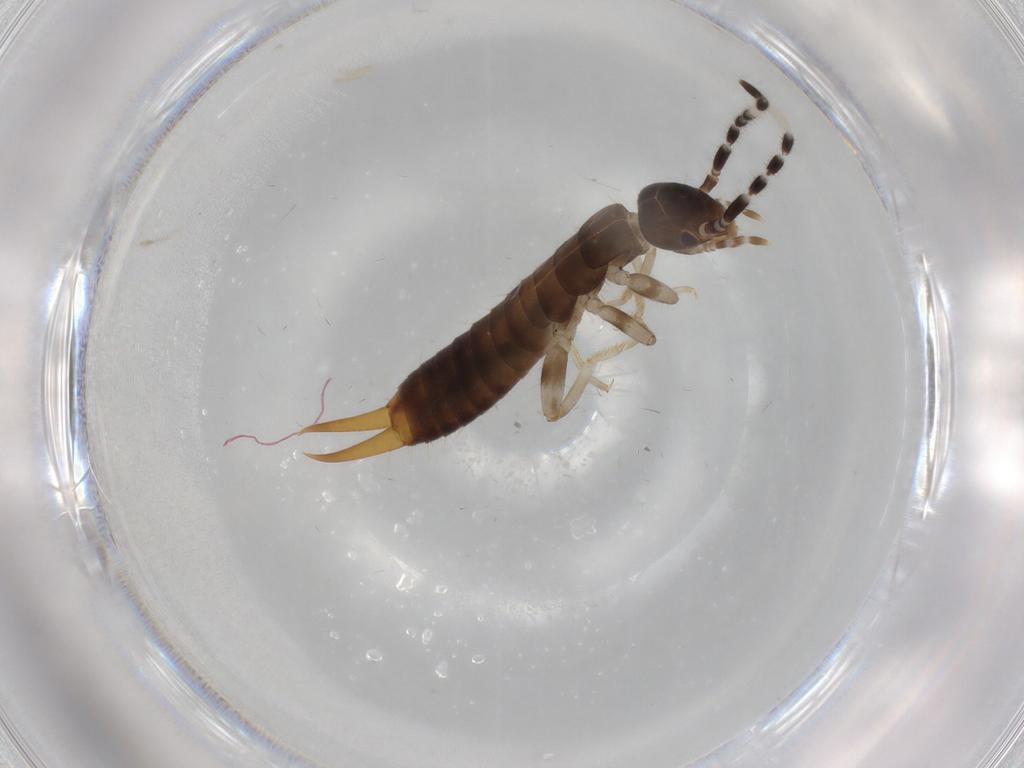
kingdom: Animalia
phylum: Arthropoda
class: Insecta
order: Dermaptera
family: Anisolabididae
